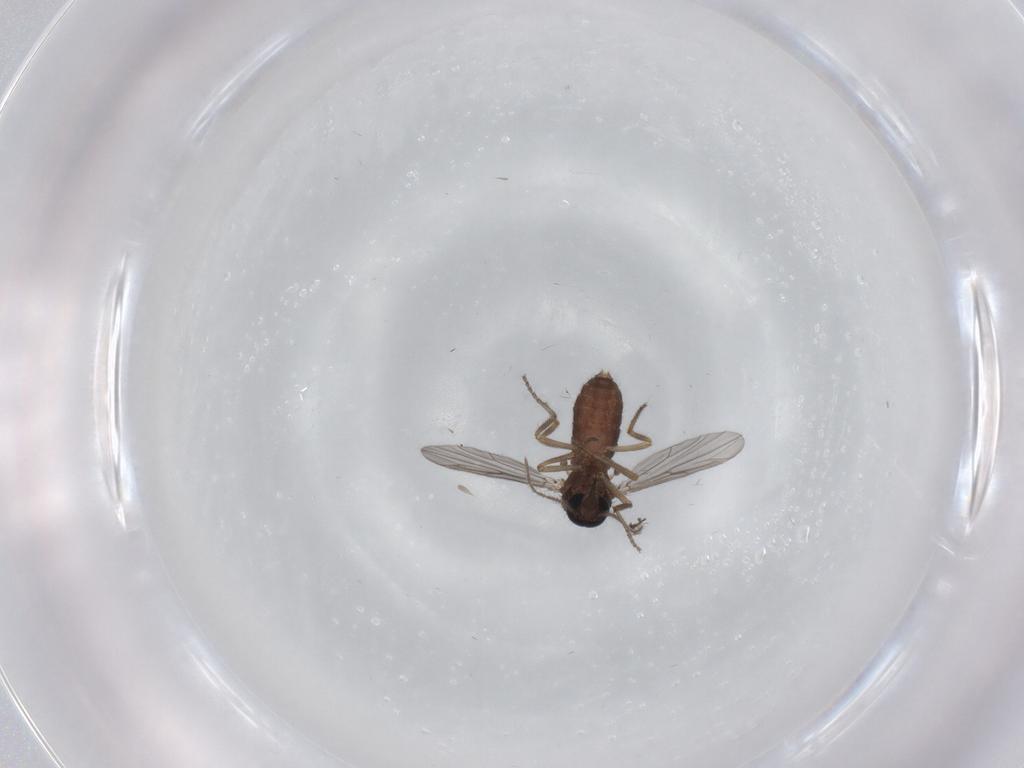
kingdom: Animalia
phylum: Arthropoda
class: Insecta
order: Diptera
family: Ceratopogonidae
